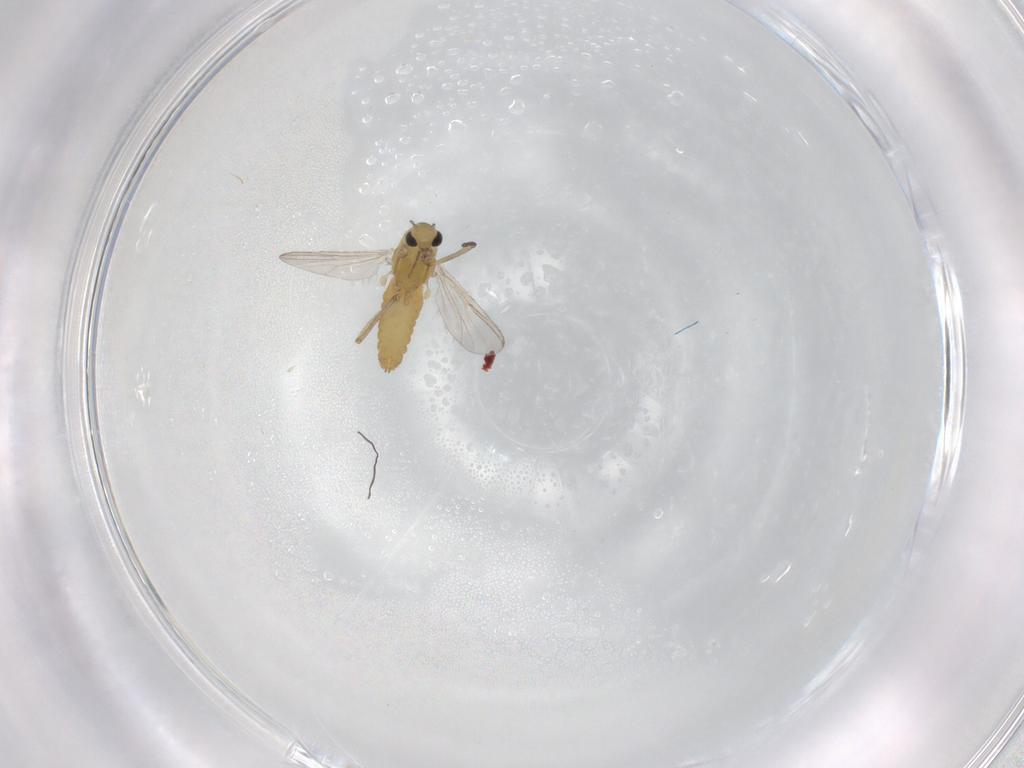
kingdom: Animalia
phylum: Arthropoda
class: Insecta
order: Diptera
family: Chironomidae
